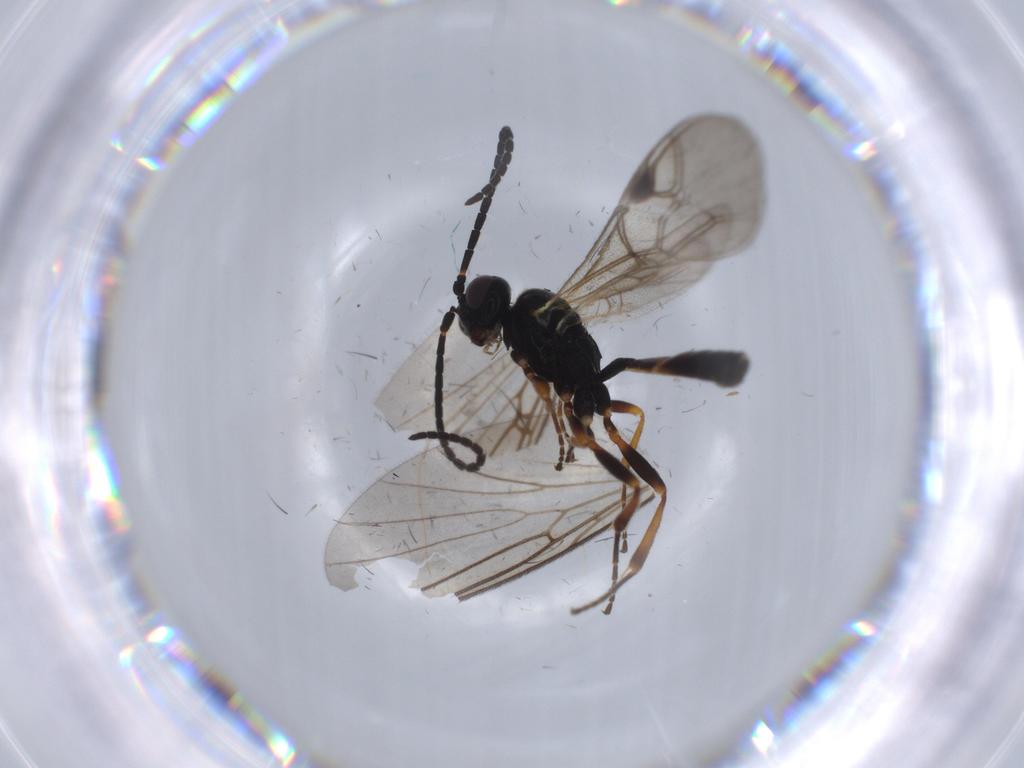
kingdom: Animalia
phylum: Arthropoda
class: Insecta
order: Hymenoptera
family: Ichneumonidae
